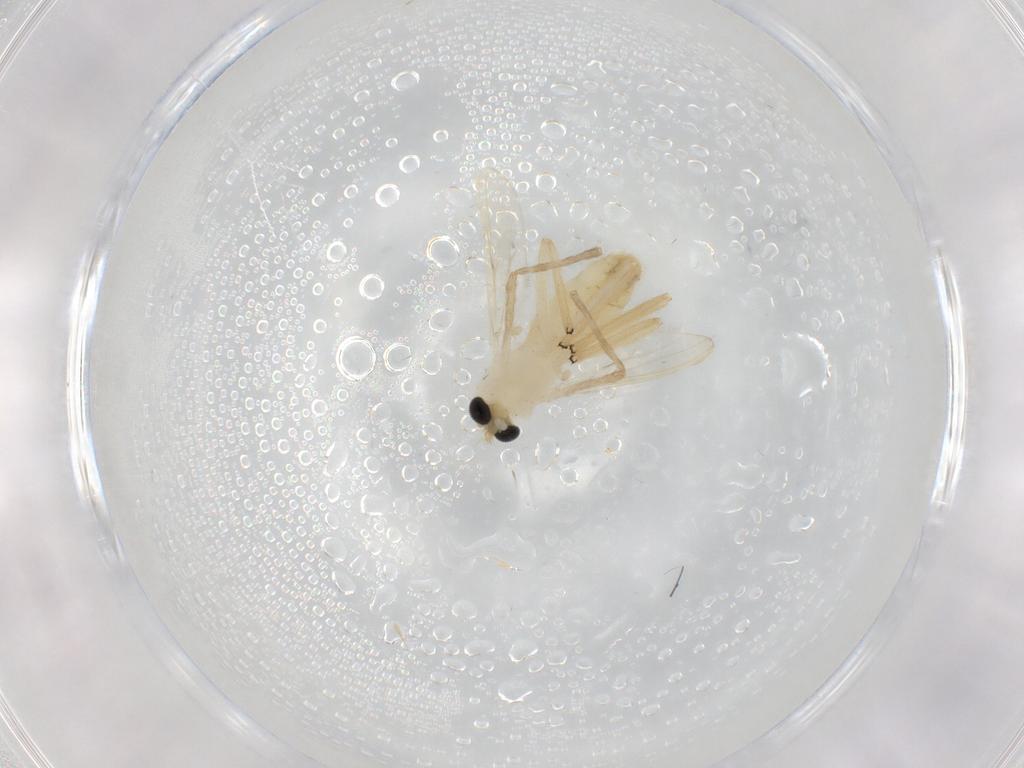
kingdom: Animalia
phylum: Arthropoda
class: Insecta
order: Diptera
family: Chironomidae
